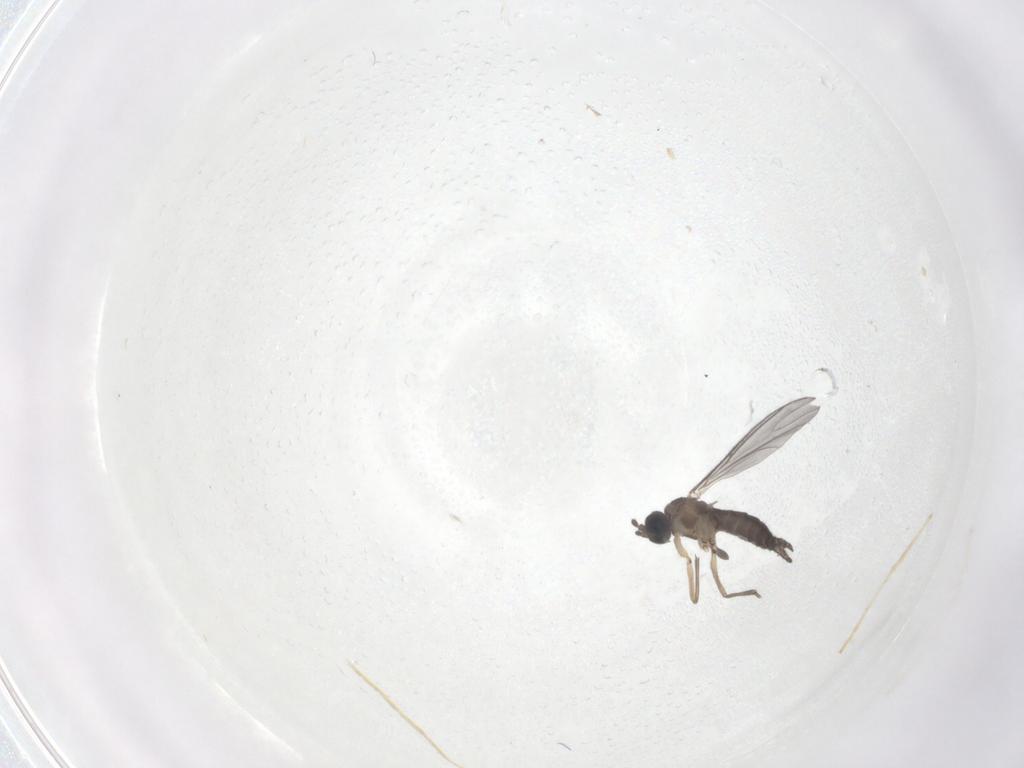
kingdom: Animalia
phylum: Arthropoda
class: Insecta
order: Diptera
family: Sciaridae
